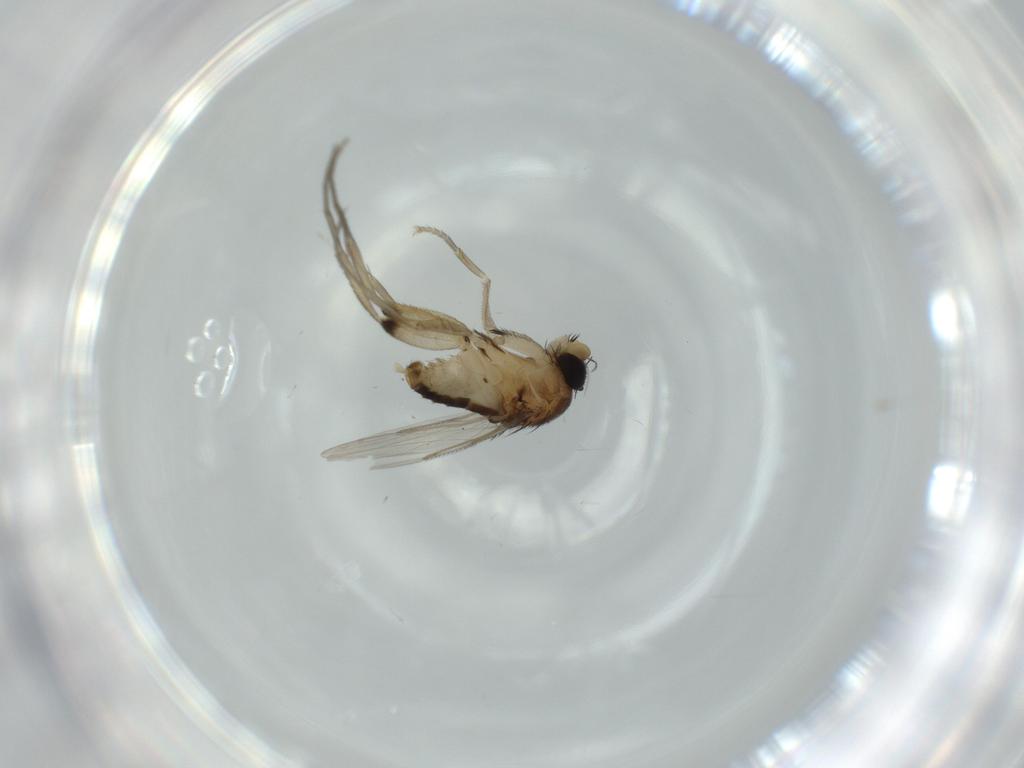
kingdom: Animalia
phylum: Arthropoda
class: Insecta
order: Diptera
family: Phoridae
